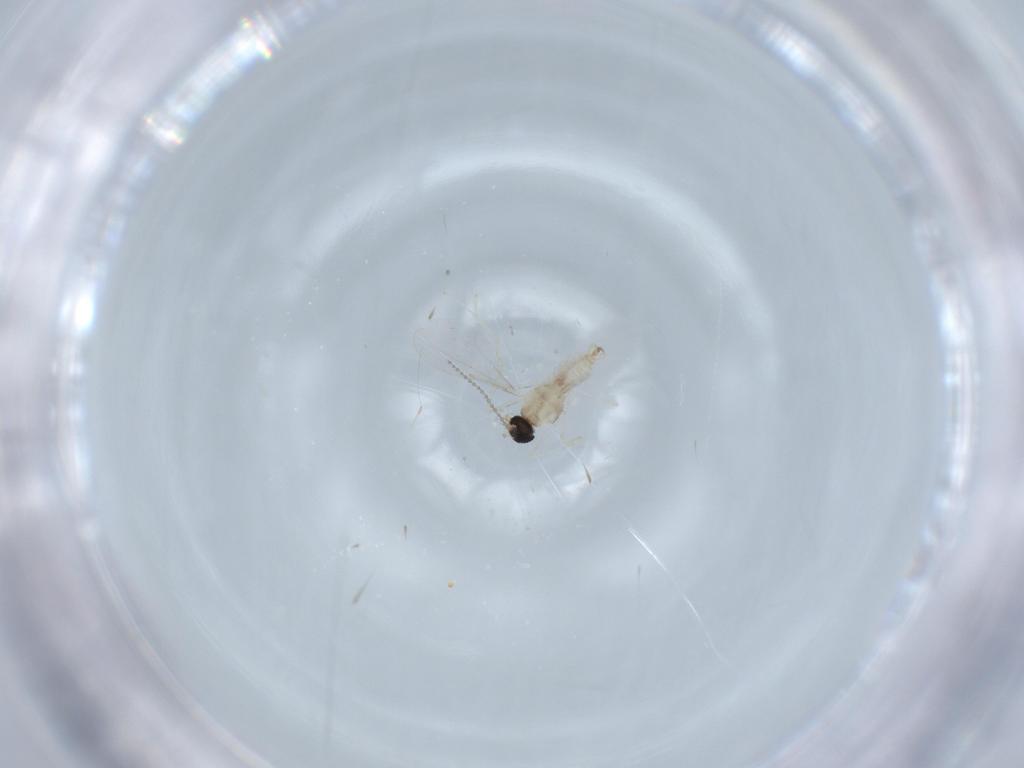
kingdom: Animalia
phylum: Arthropoda
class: Insecta
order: Diptera
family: Cecidomyiidae
